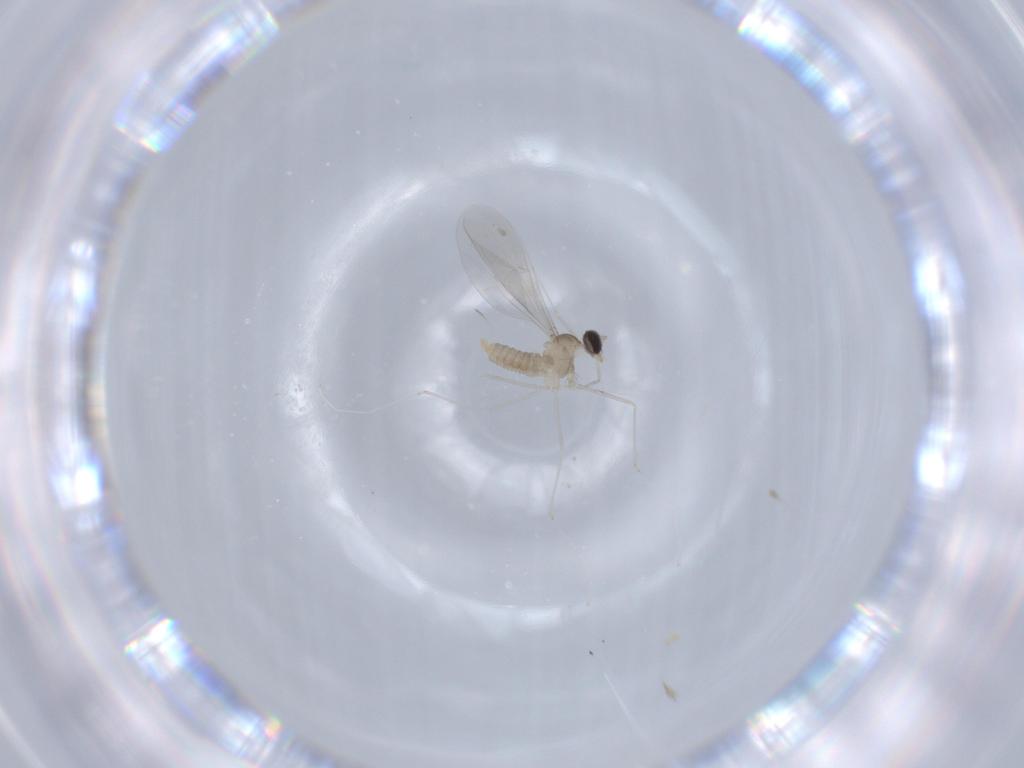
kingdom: Animalia
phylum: Arthropoda
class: Insecta
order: Diptera
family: Cecidomyiidae
